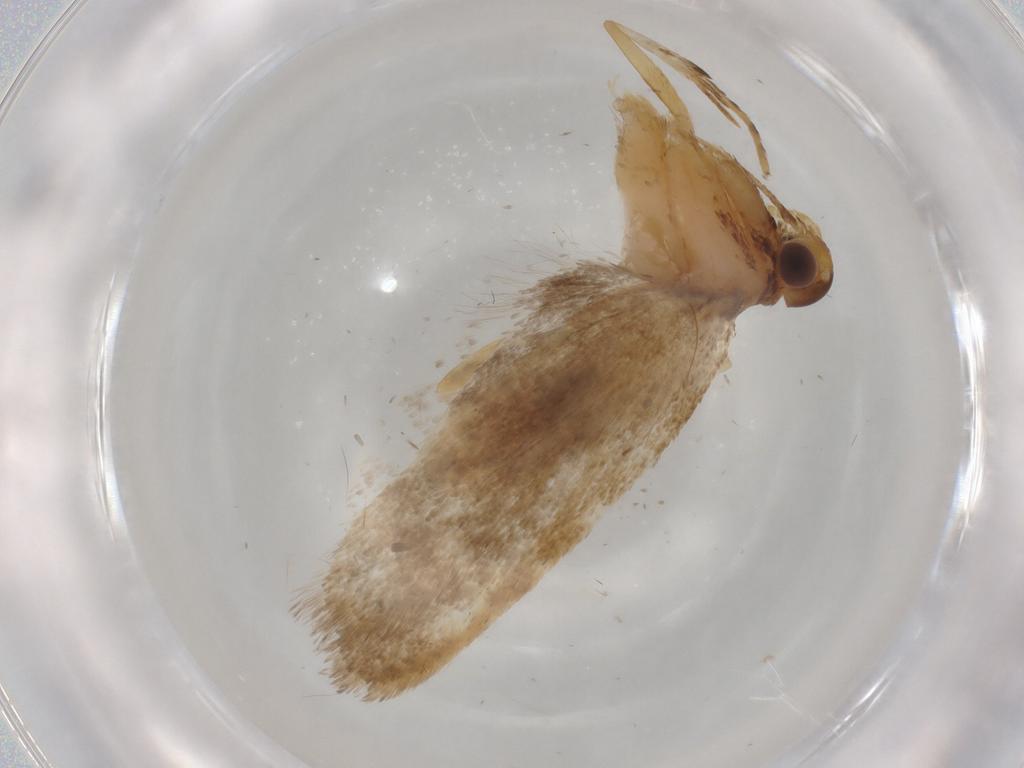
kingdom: Animalia
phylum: Arthropoda
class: Insecta
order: Lepidoptera
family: Lecithoceridae
